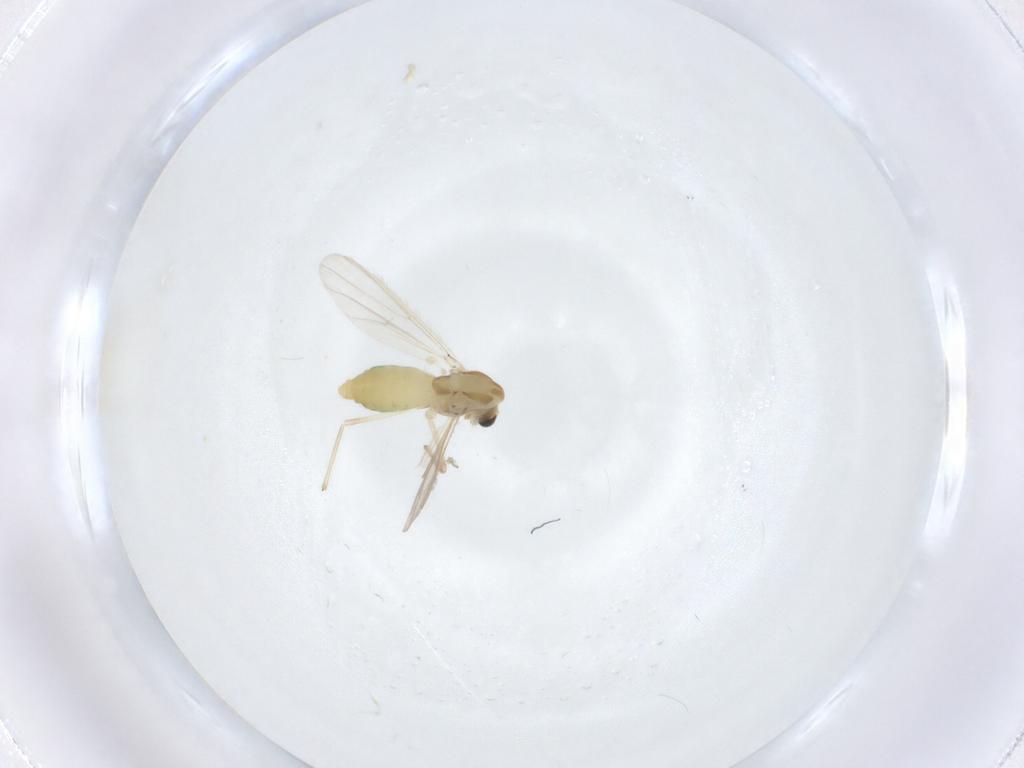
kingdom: Animalia
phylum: Arthropoda
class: Insecta
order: Diptera
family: Chironomidae
